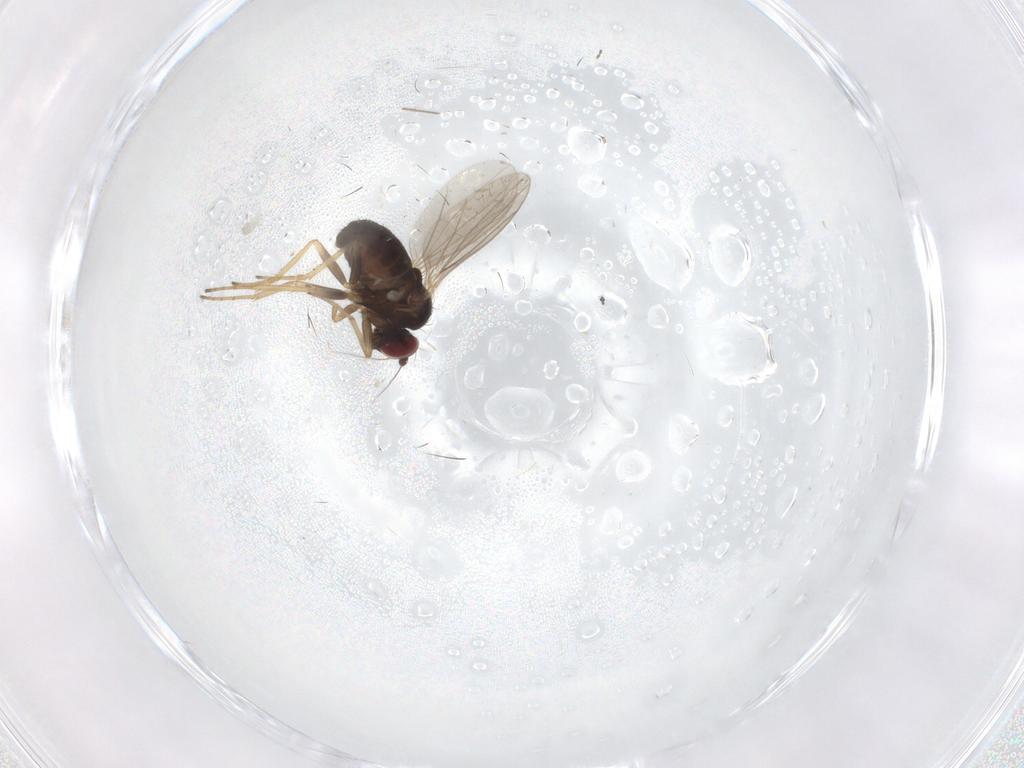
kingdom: Animalia
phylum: Arthropoda
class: Insecta
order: Diptera
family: Dolichopodidae
